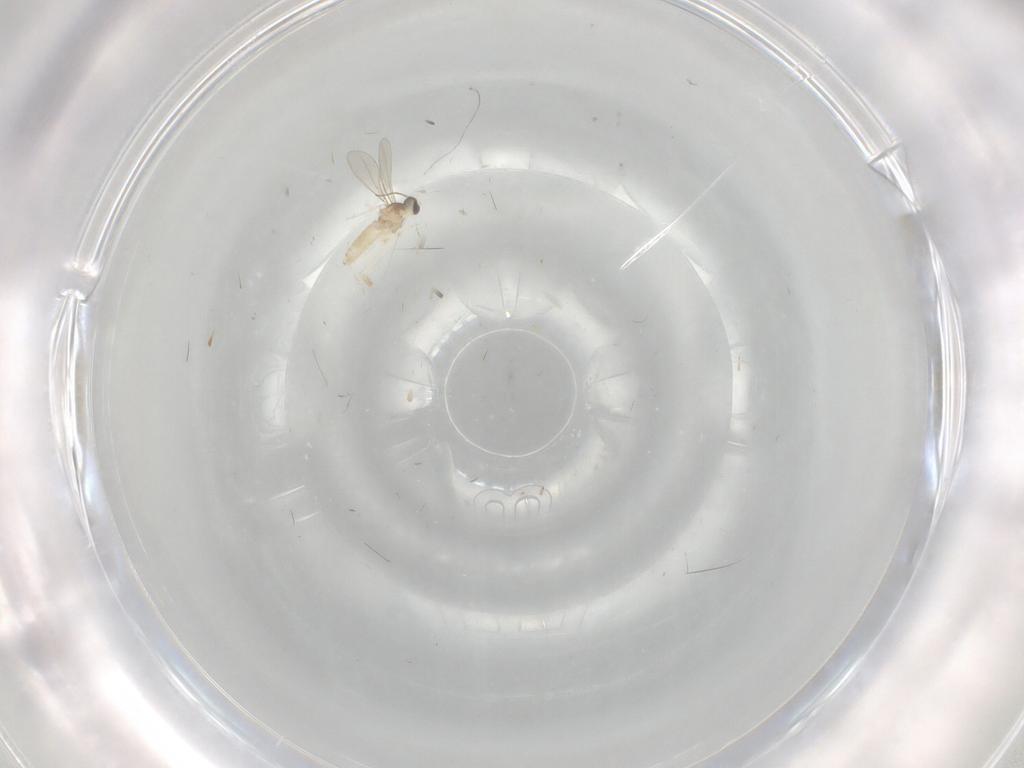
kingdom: Animalia
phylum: Arthropoda
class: Insecta
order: Diptera
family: Cecidomyiidae
